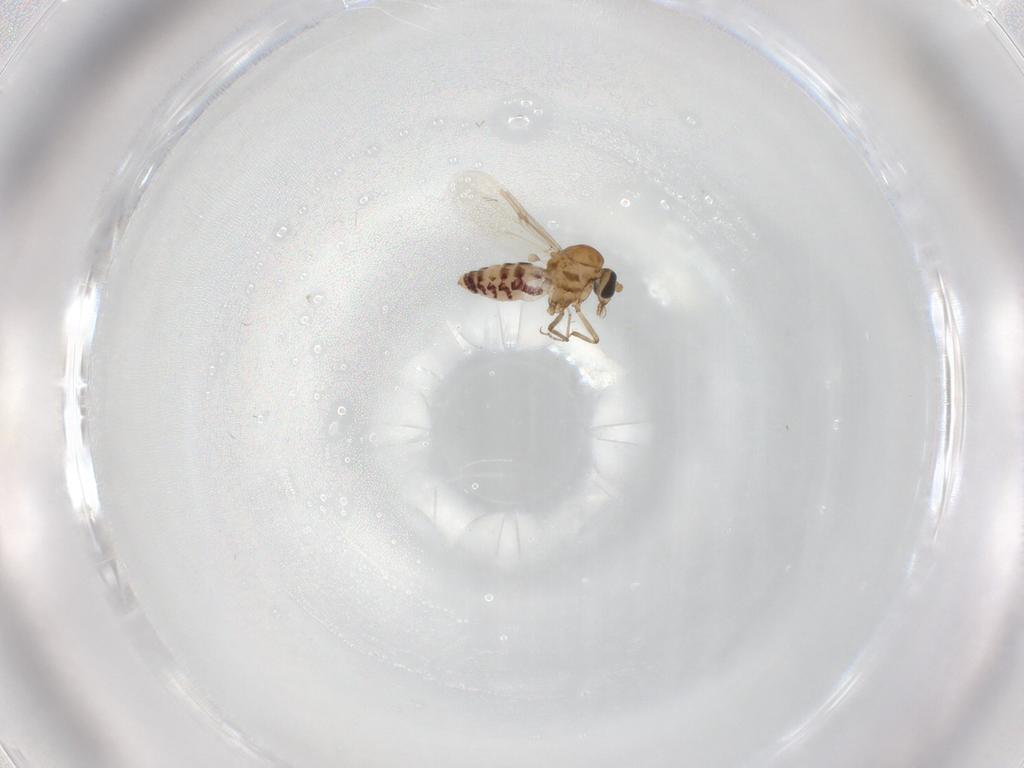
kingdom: Animalia
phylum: Arthropoda
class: Insecta
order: Diptera
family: Ceratopogonidae
